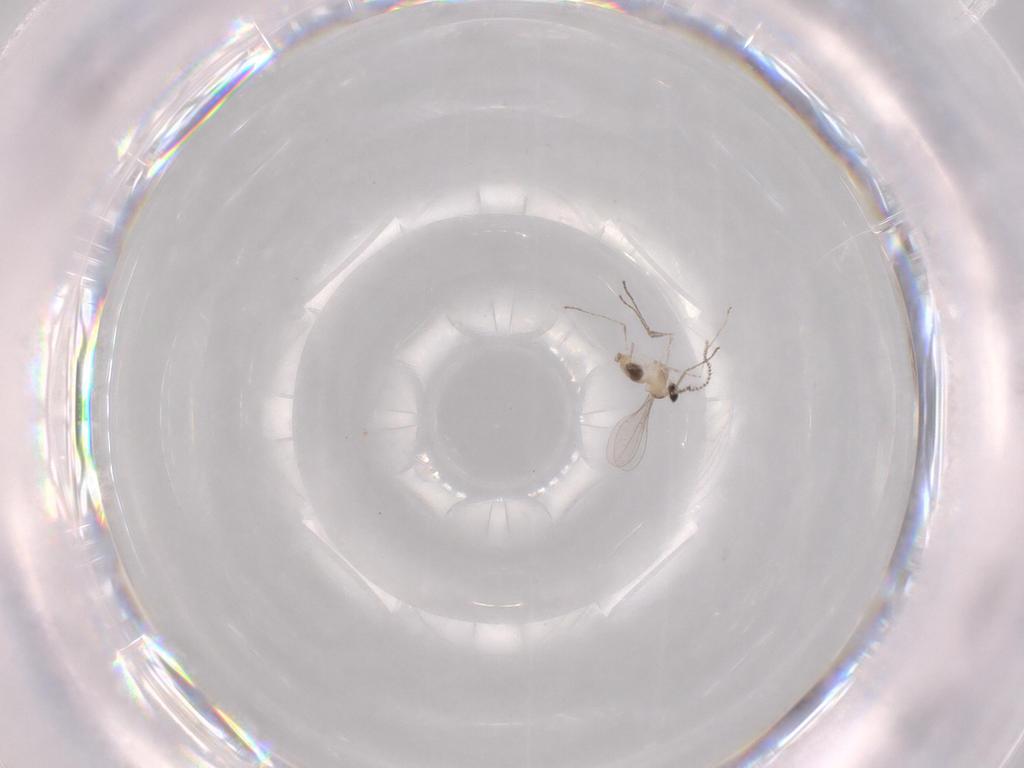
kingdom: Animalia
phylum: Arthropoda
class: Insecta
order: Diptera
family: Cecidomyiidae
